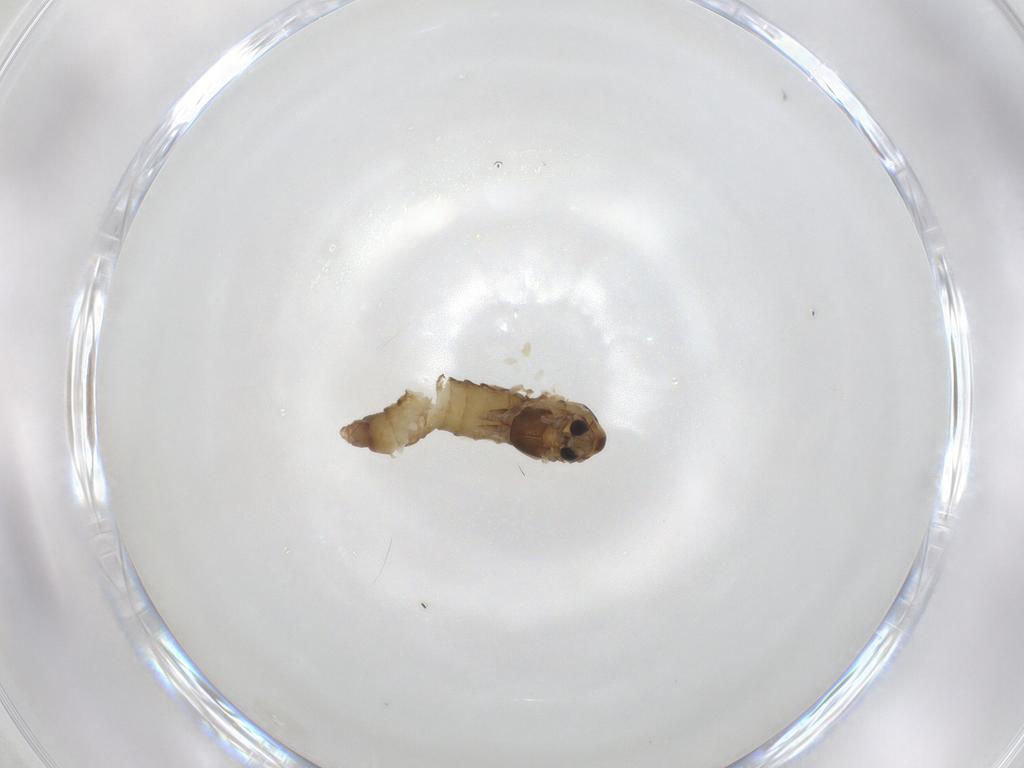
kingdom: Animalia
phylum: Arthropoda
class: Insecta
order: Diptera
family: Chironomidae
